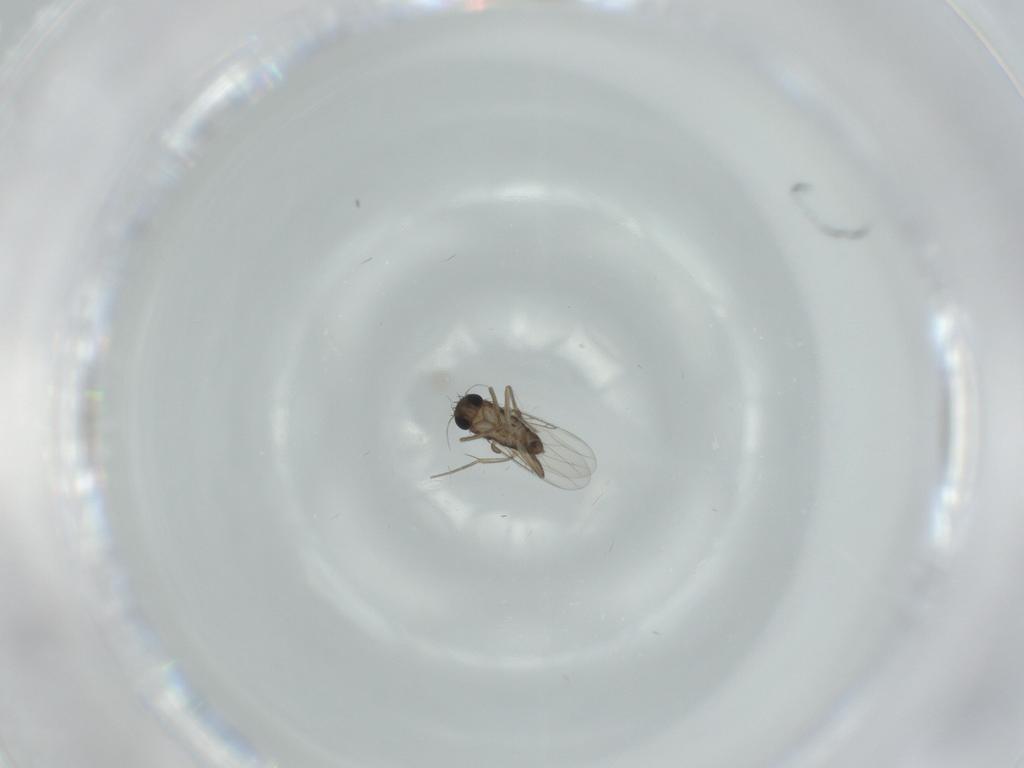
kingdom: Animalia
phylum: Arthropoda
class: Insecta
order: Diptera
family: Phoridae
